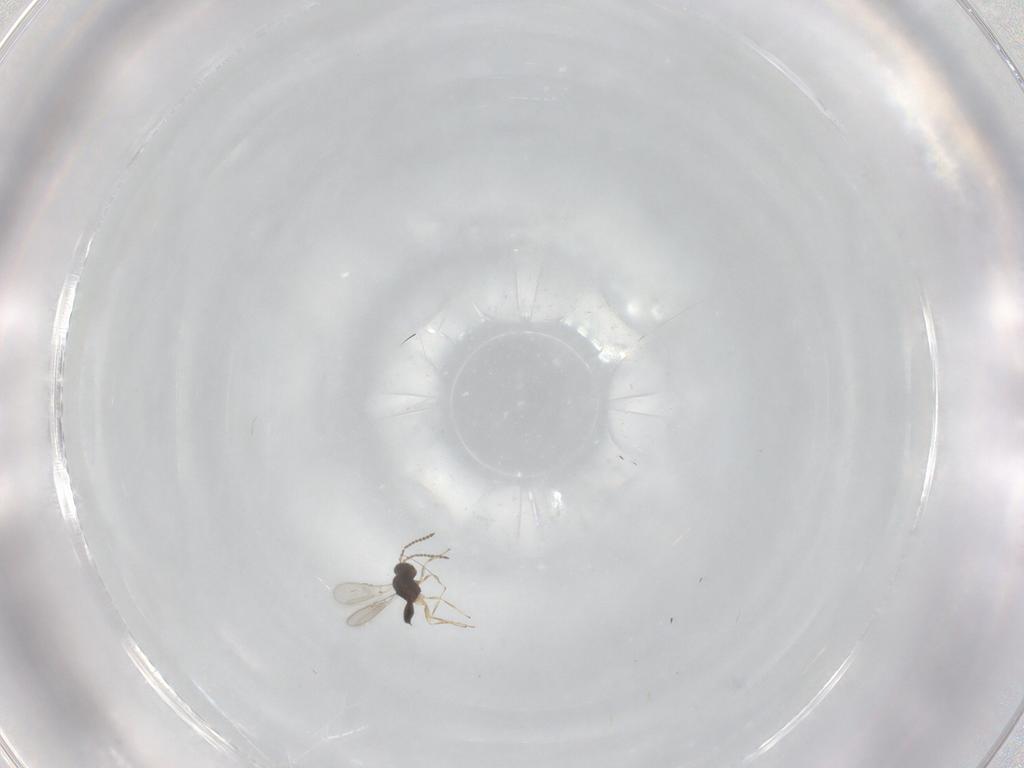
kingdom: Animalia
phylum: Arthropoda
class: Insecta
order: Hymenoptera
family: Scelionidae
